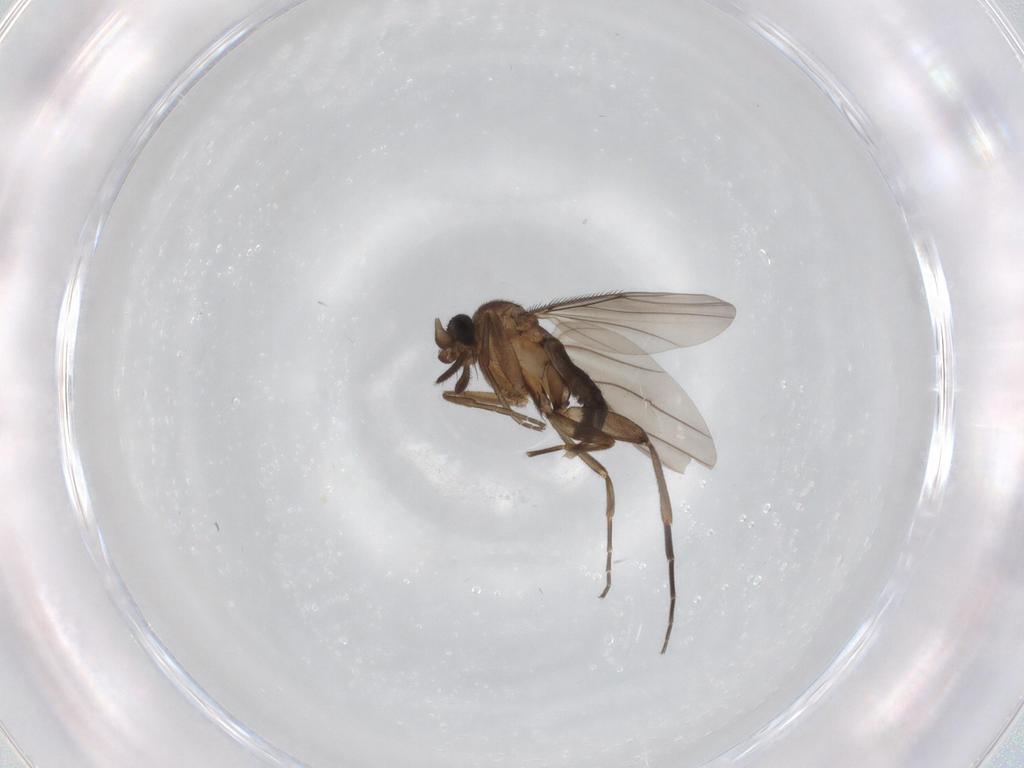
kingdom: Animalia
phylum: Arthropoda
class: Insecta
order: Diptera
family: Phoridae
